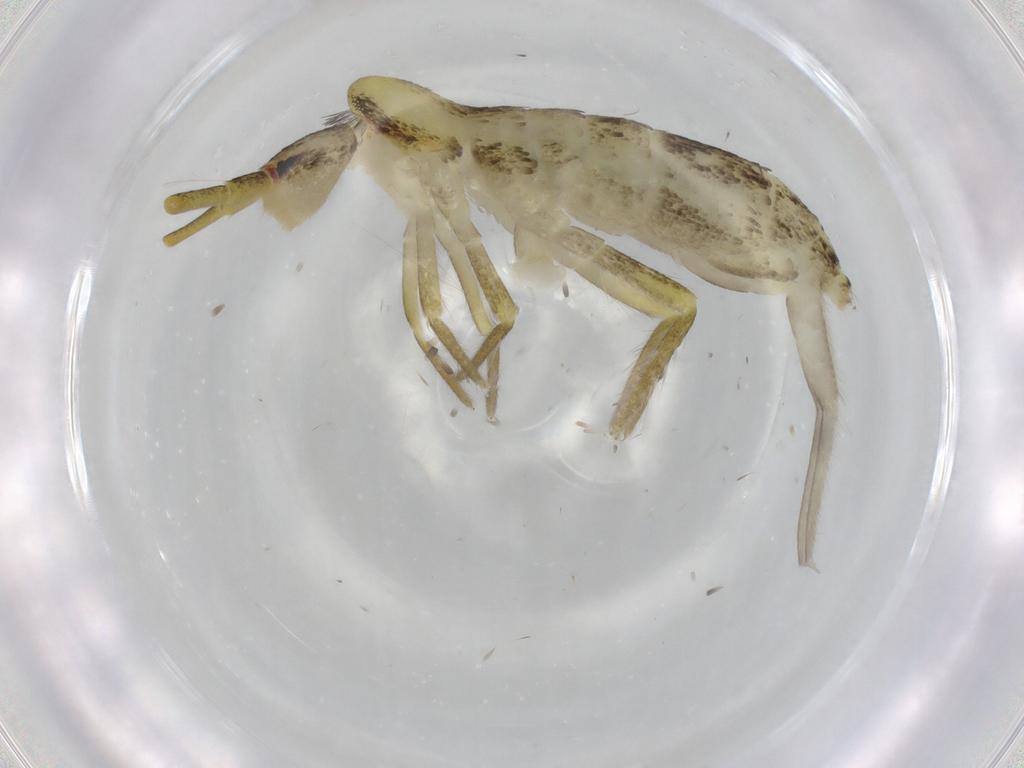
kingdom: Animalia
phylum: Arthropoda
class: Collembola
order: Entomobryomorpha
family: Tomoceridae
